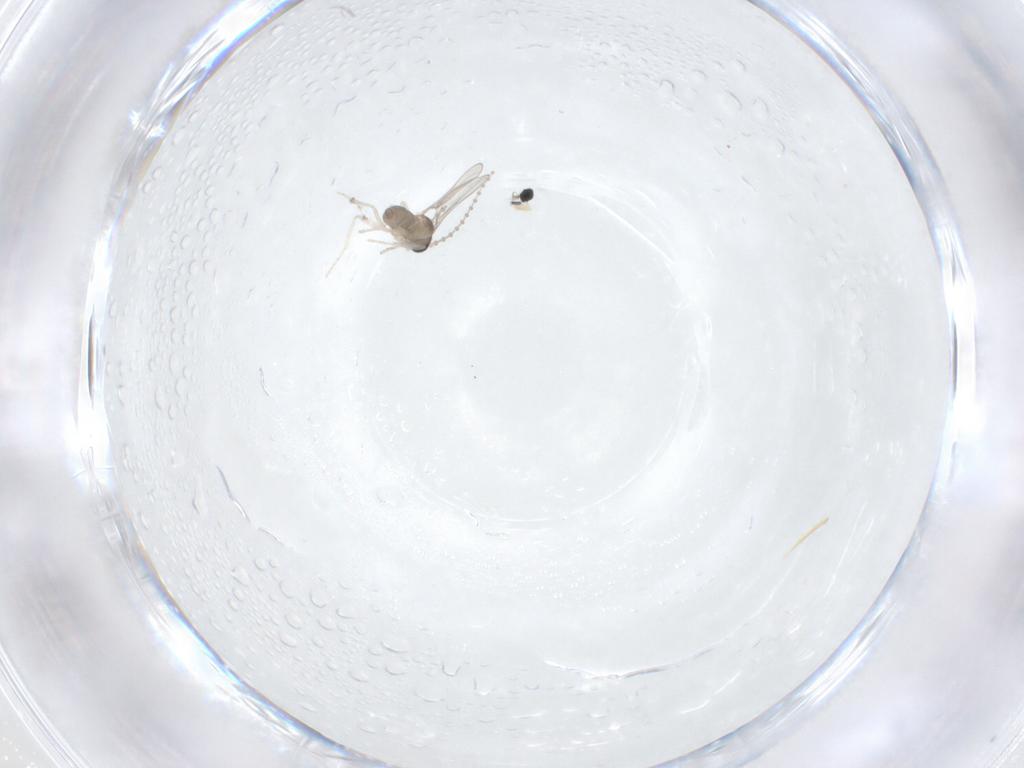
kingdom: Animalia
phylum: Arthropoda
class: Insecta
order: Diptera
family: Cecidomyiidae
